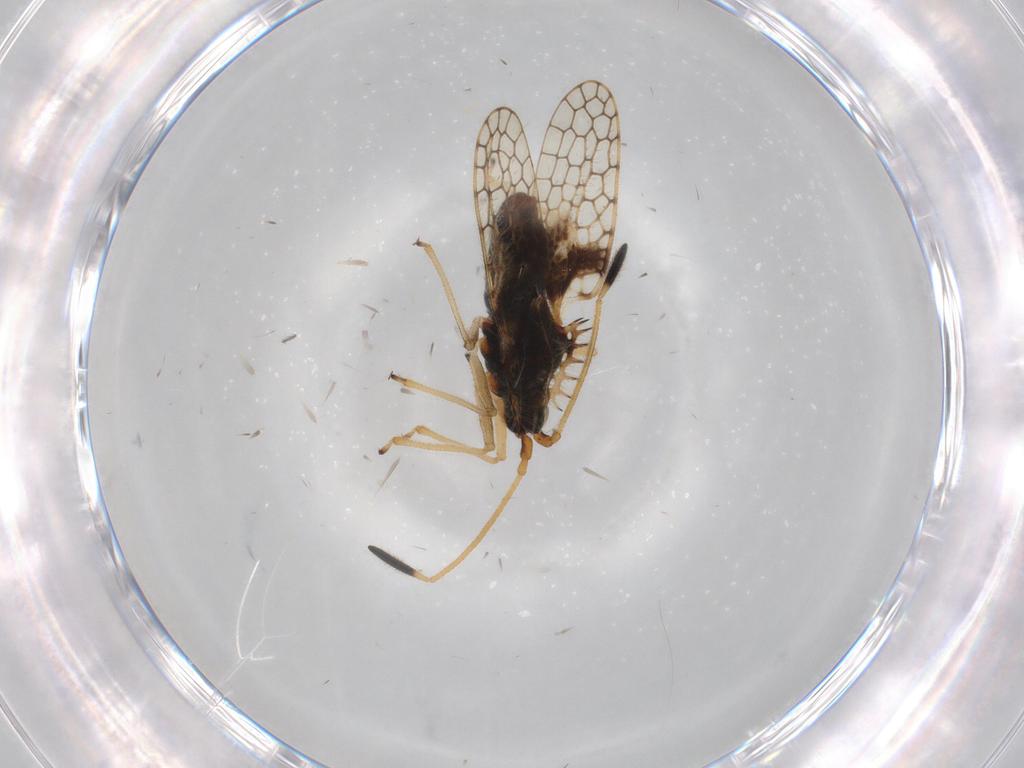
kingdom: Animalia
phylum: Arthropoda
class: Insecta
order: Hemiptera
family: Tingidae
